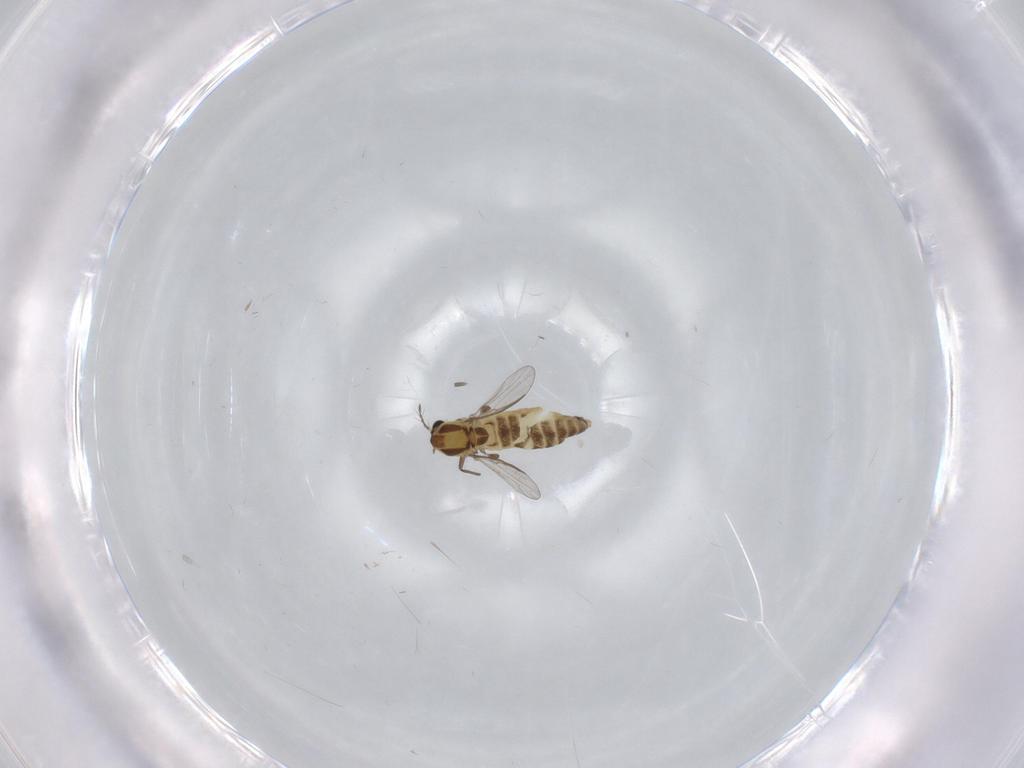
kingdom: Animalia
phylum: Arthropoda
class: Insecta
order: Diptera
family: Chironomidae
